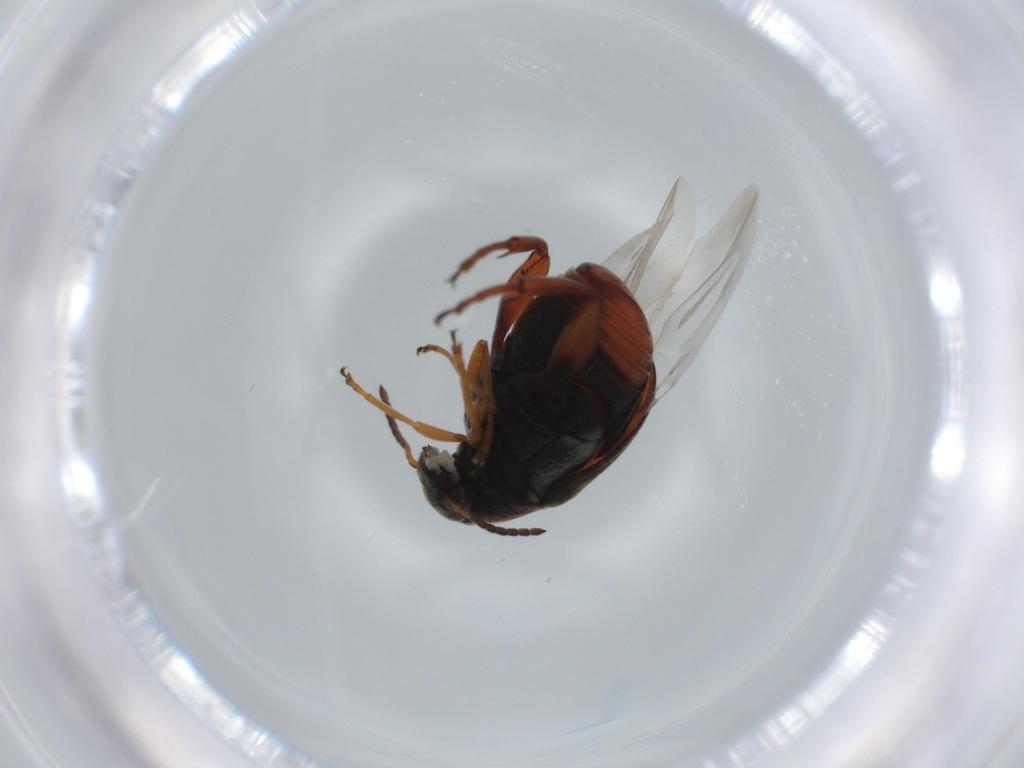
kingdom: Animalia
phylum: Arthropoda
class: Insecta
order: Coleoptera
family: Chrysomelidae
